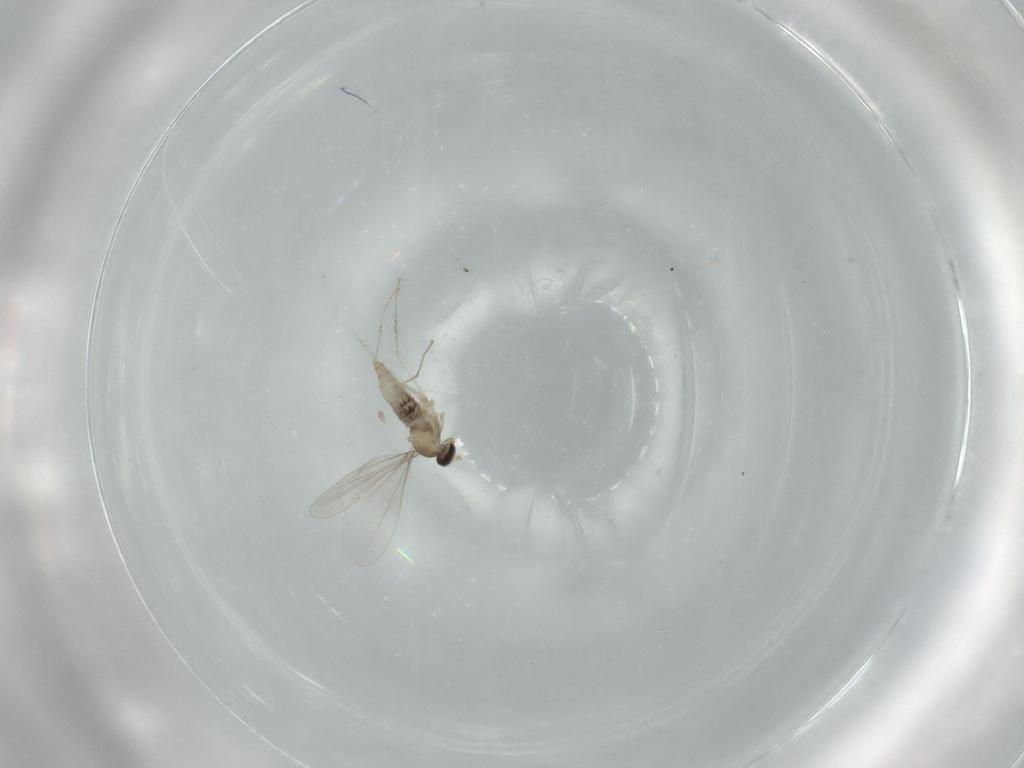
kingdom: Animalia
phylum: Arthropoda
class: Insecta
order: Diptera
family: Cecidomyiidae
